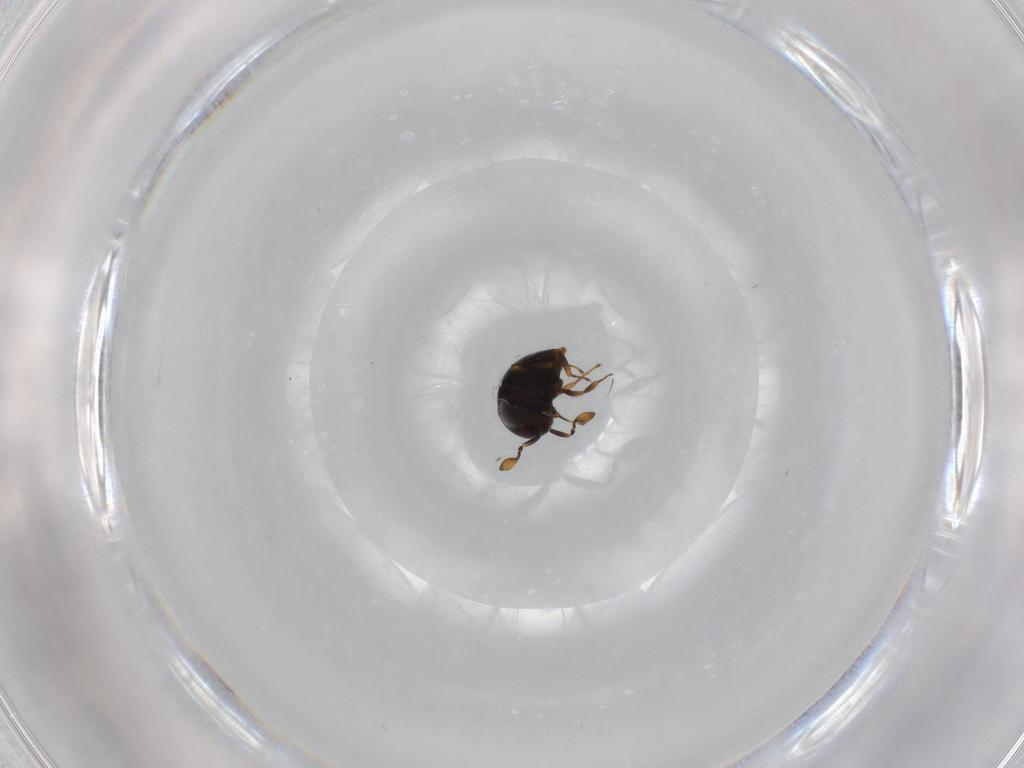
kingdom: Animalia
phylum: Arthropoda
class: Insecta
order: Hymenoptera
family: Scelionidae
